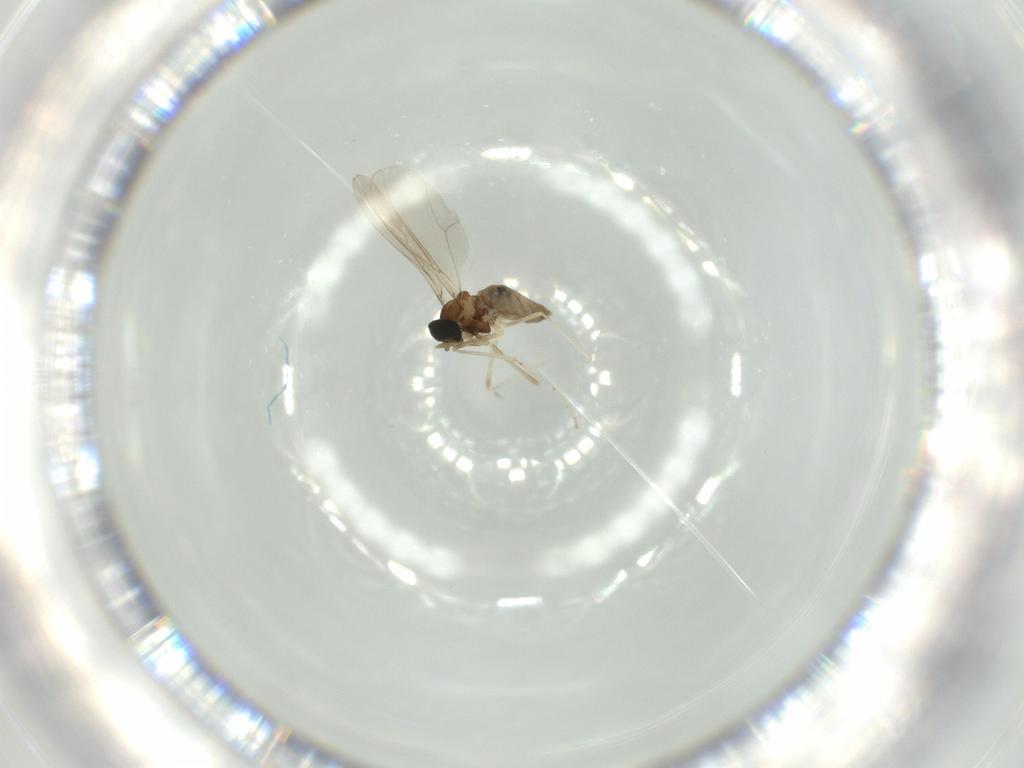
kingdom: Animalia
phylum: Arthropoda
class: Insecta
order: Diptera
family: Cecidomyiidae
